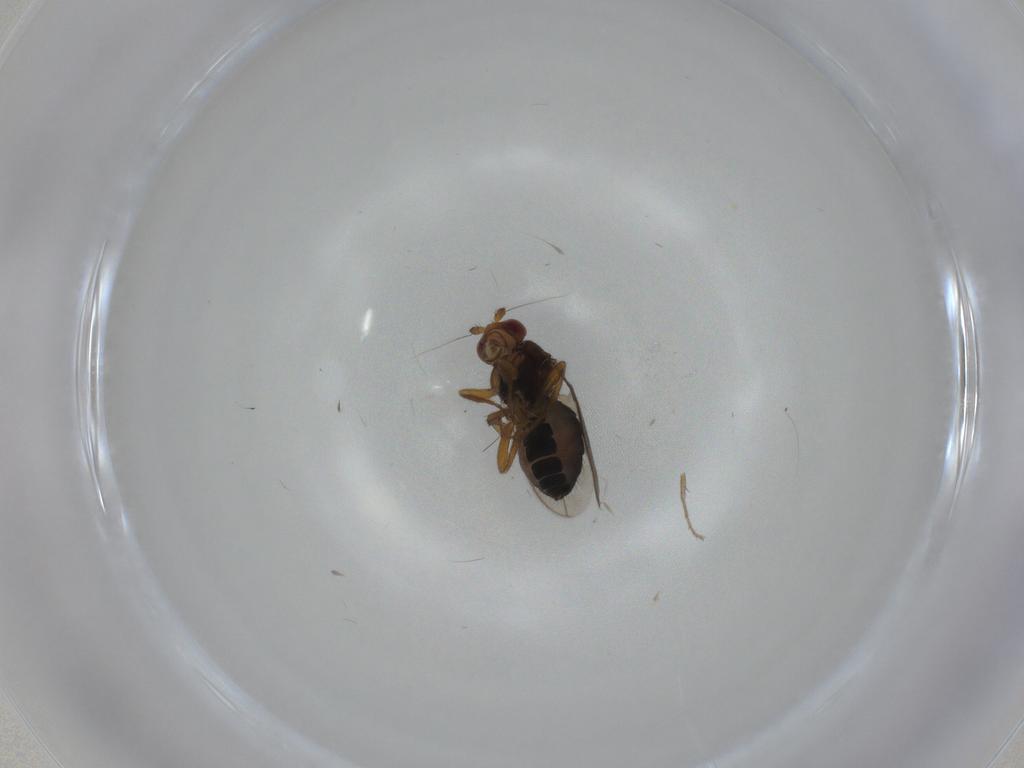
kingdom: Animalia
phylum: Arthropoda
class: Insecta
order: Diptera
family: Sphaeroceridae
